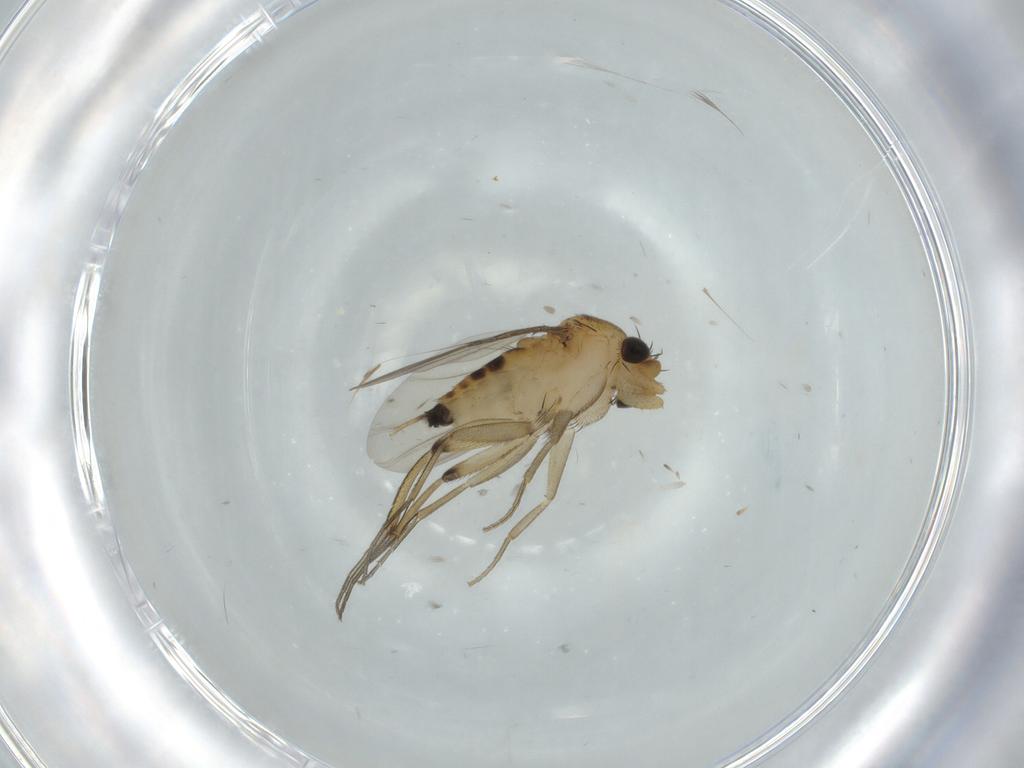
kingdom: Animalia
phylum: Arthropoda
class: Insecta
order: Diptera
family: Phoridae
